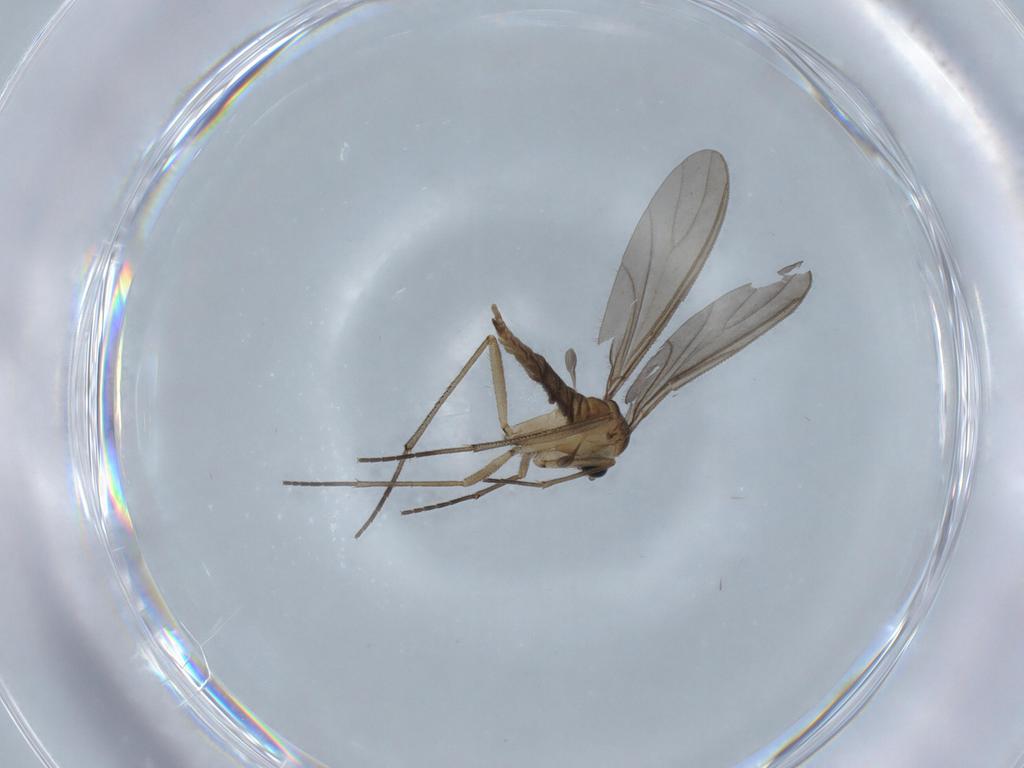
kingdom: Animalia
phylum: Arthropoda
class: Insecta
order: Diptera
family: Sciaridae
